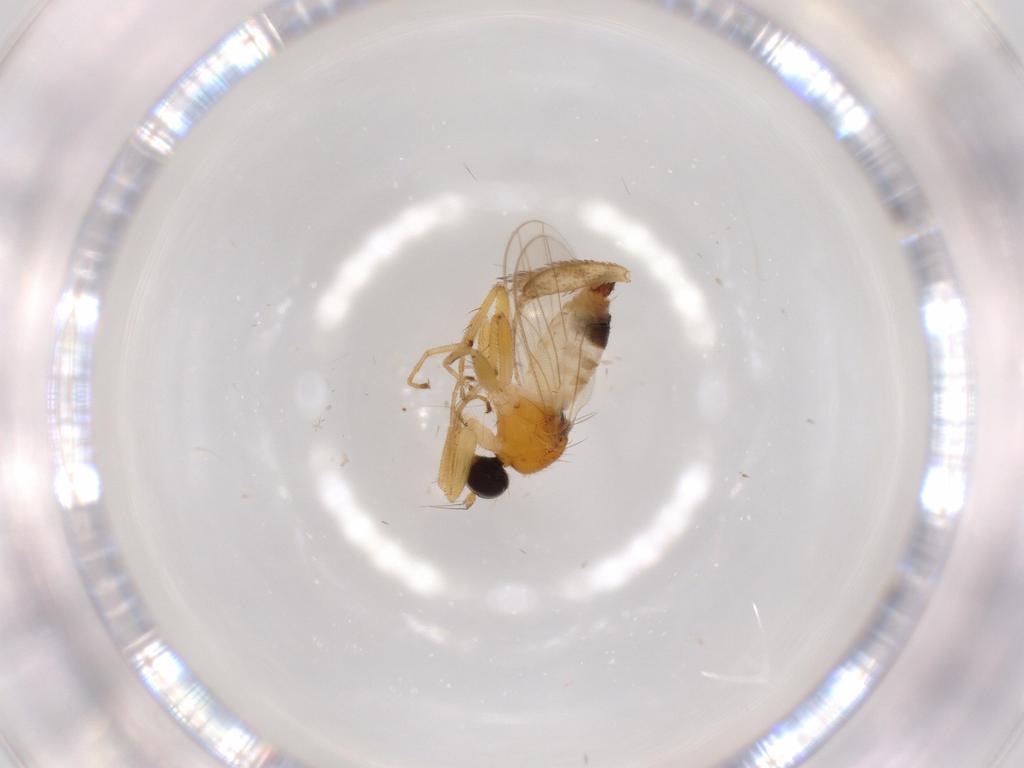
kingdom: Animalia
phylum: Arthropoda
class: Insecta
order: Diptera
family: Hybotidae
